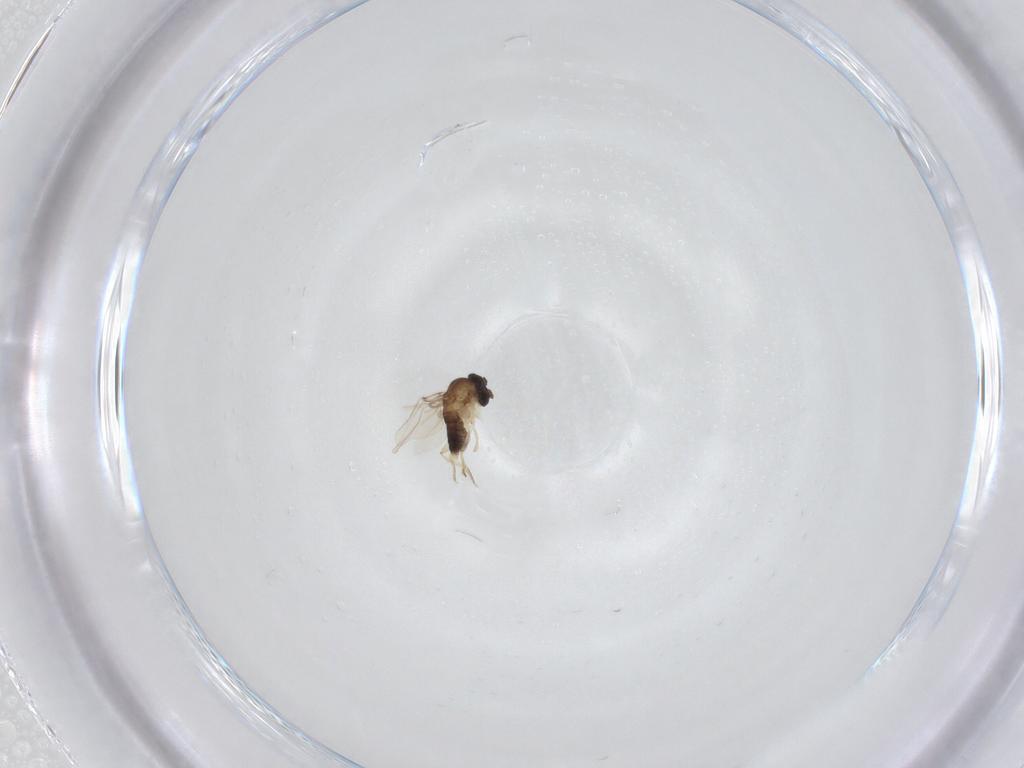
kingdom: Animalia
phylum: Arthropoda
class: Insecta
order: Diptera
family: Phoridae
